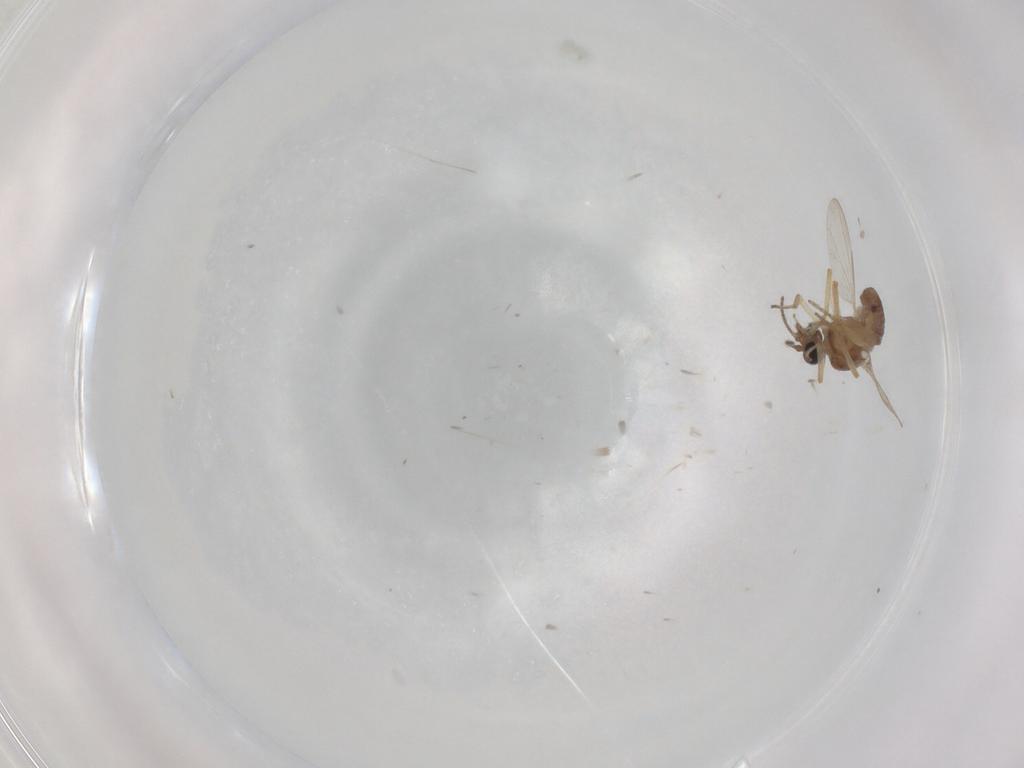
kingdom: Animalia
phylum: Arthropoda
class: Insecta
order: Diptera
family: Ceratopogonidae
